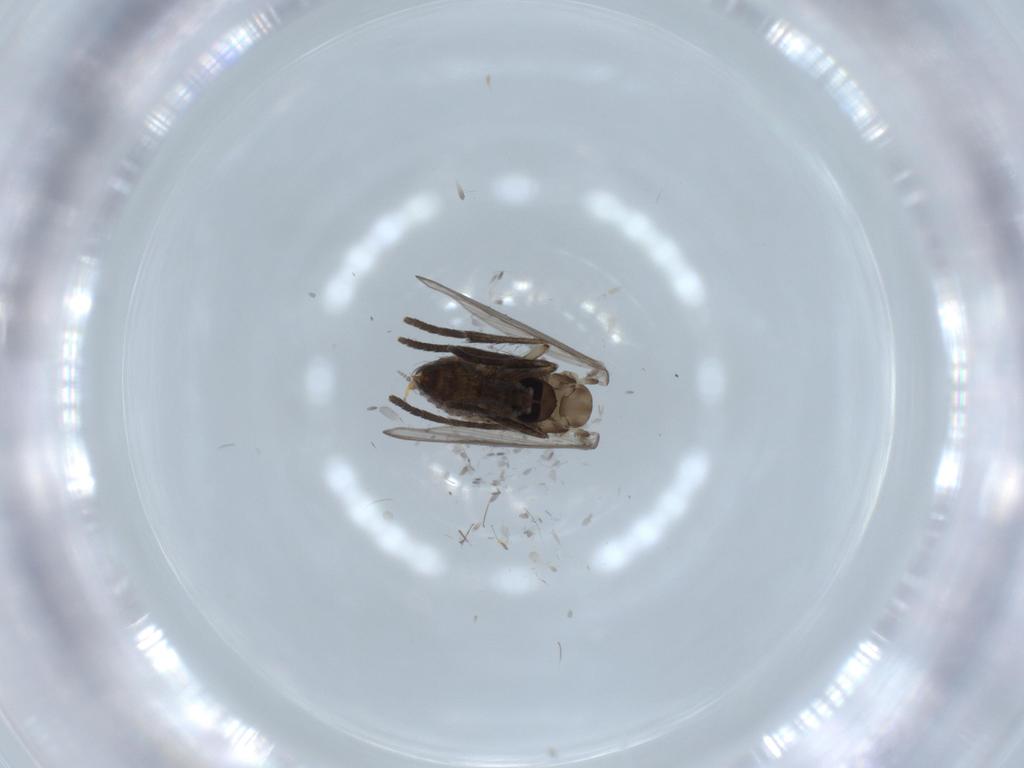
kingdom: Animalia
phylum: Arthropoda
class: Insecta
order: Diptera
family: Psychodidae
